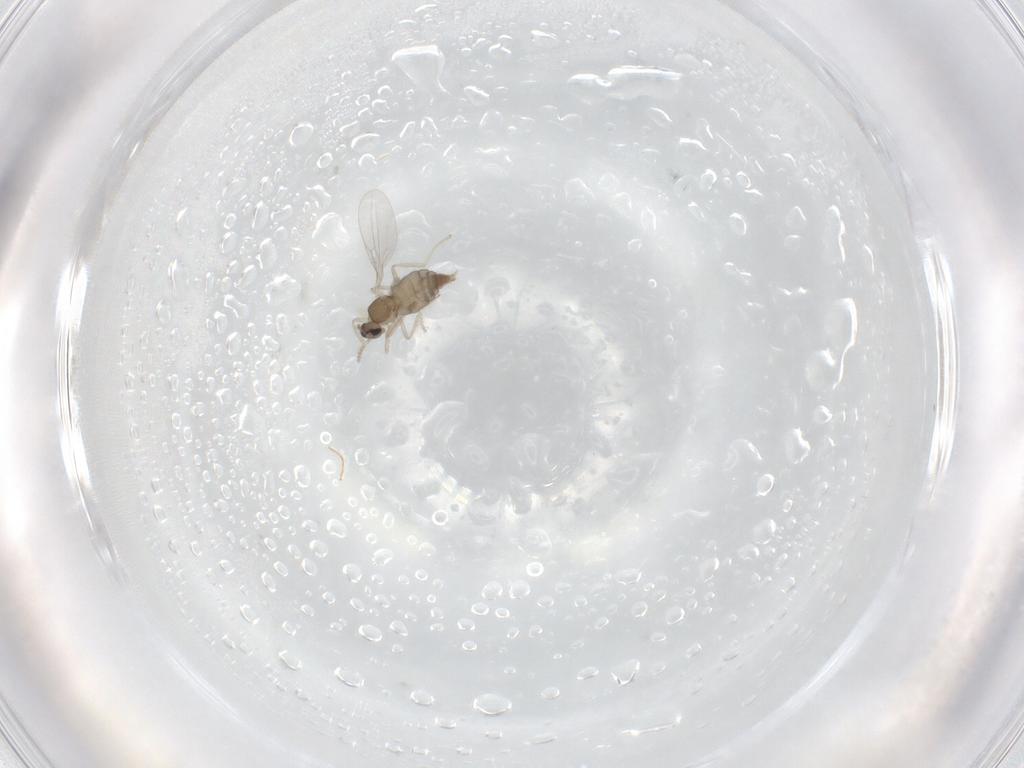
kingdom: Animalia
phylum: Arthropoda
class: Insecta
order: Diptera
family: Cecidomyiidae
